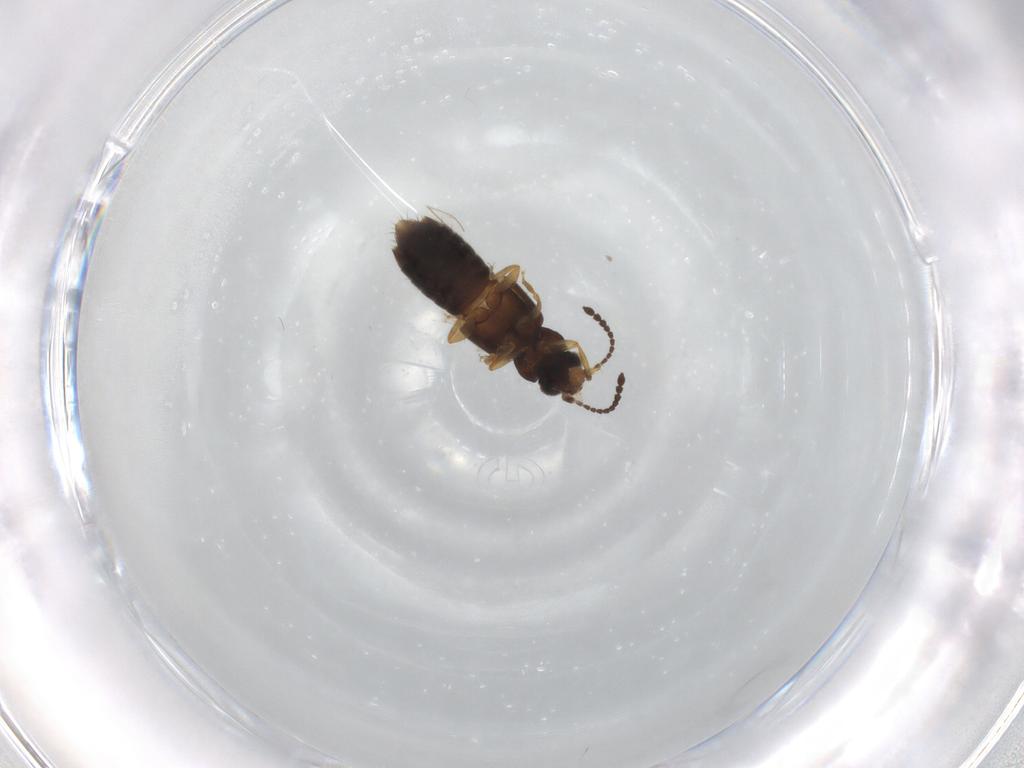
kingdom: Animalia
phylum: Arthropoda
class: Insecta
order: Coleoptera
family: Staphylinidae
